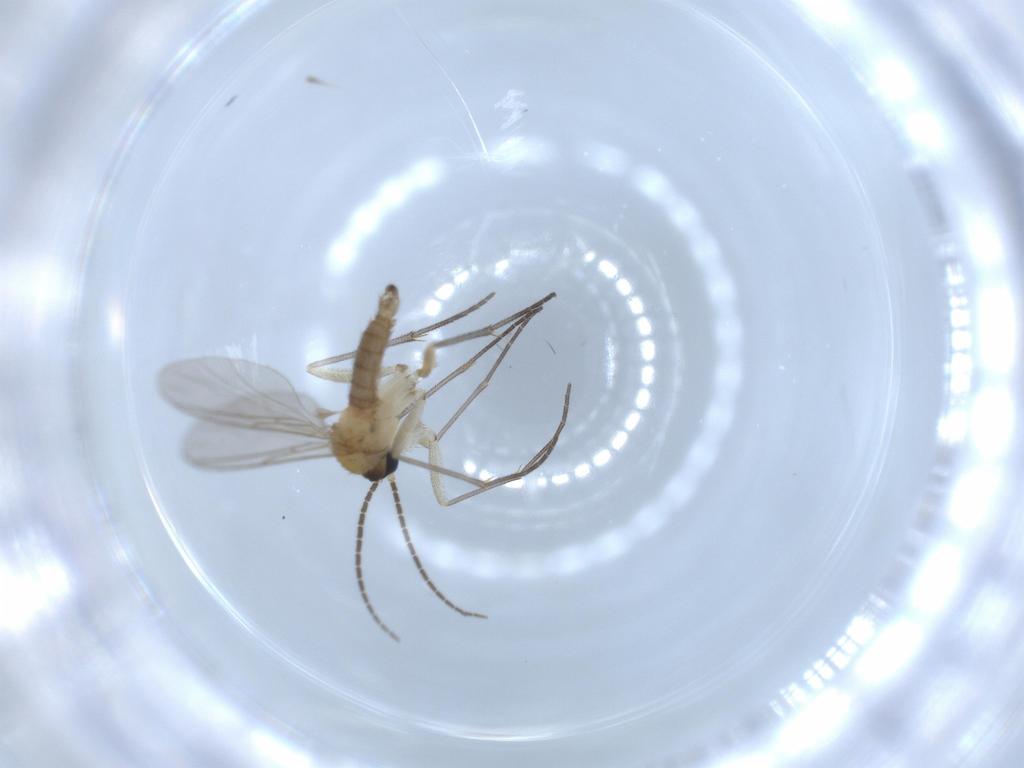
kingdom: Animalia
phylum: Arthropoda
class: Insecta
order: Diptera
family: Sciaridae
